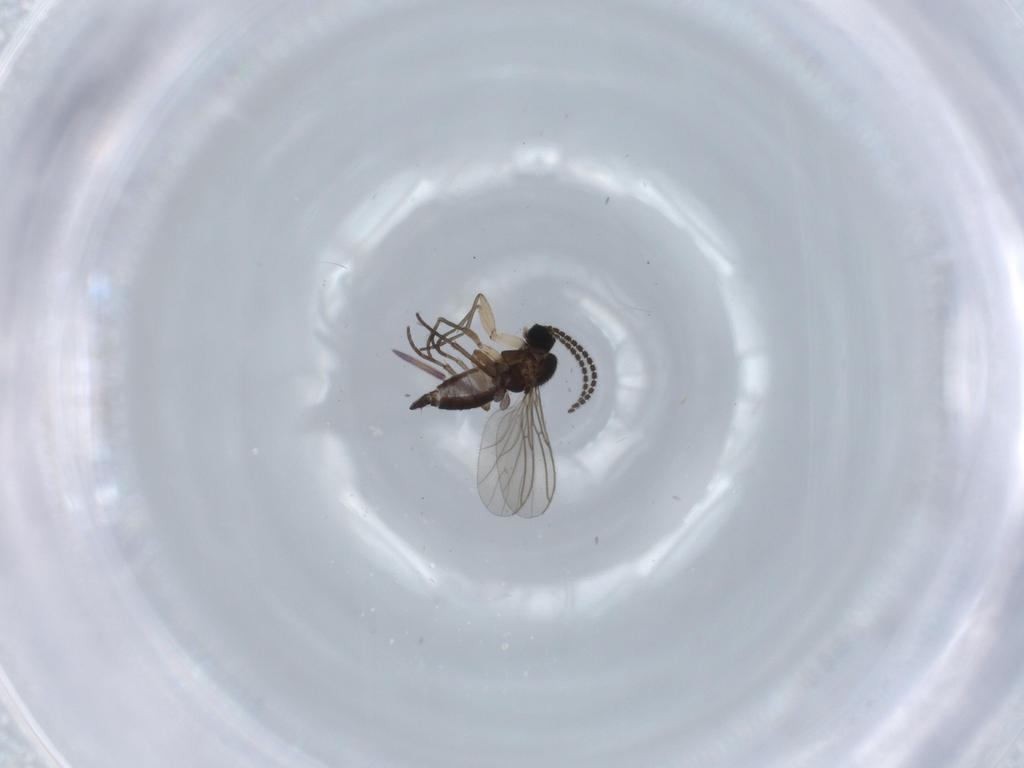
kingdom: Animalia
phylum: Arthropoda
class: Insecta
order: Diptera
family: Sciaridae
